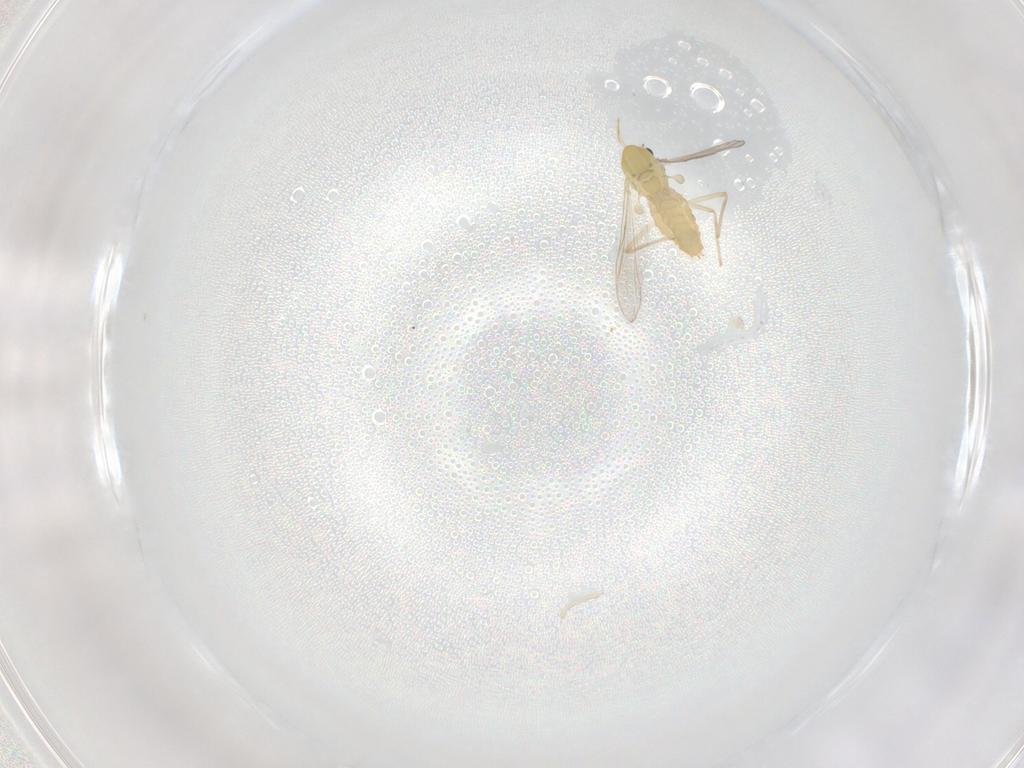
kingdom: Animalia
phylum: Arthropoda
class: Insecta
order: Diptera
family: Chironomidae
